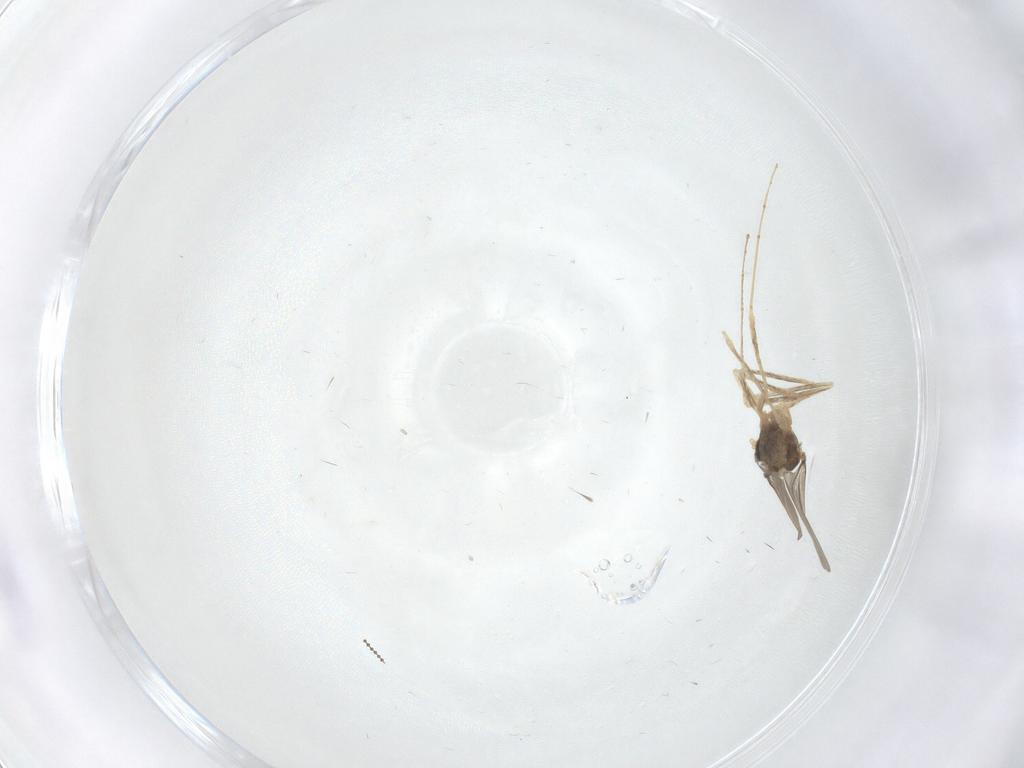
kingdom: Animalia
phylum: Arthropoda
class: Insecta
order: Diptera
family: Cecidomyiidae
